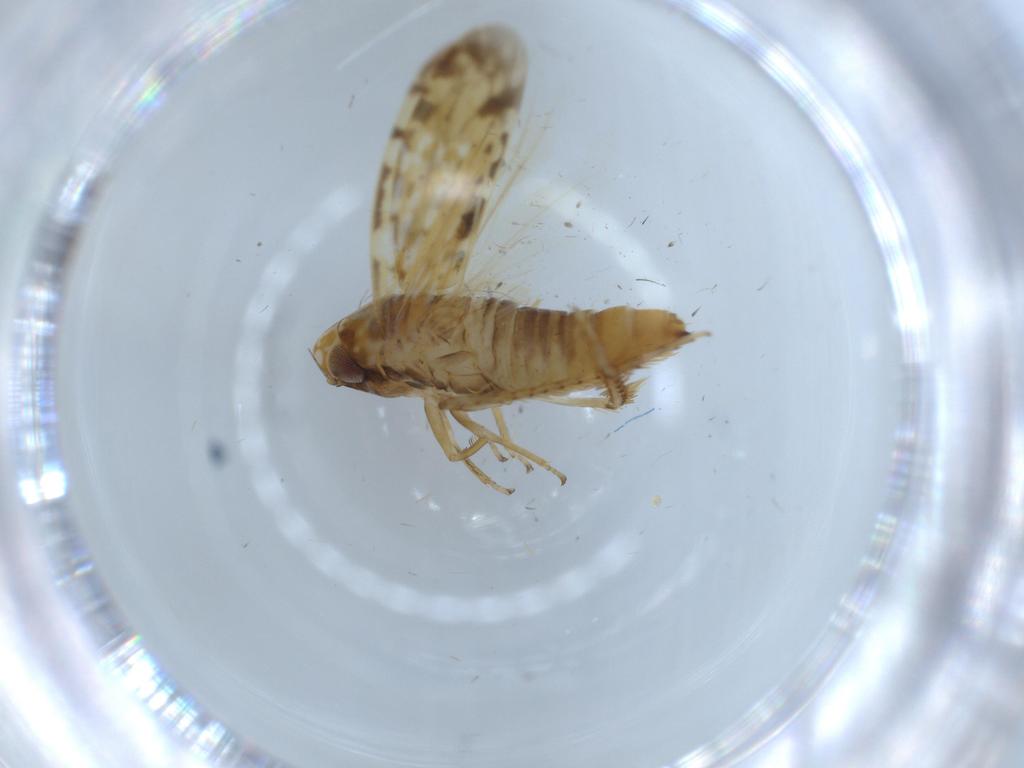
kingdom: Animalia
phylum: Arthropoda
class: Insecta
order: Hemiptera
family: Cicadellidae
